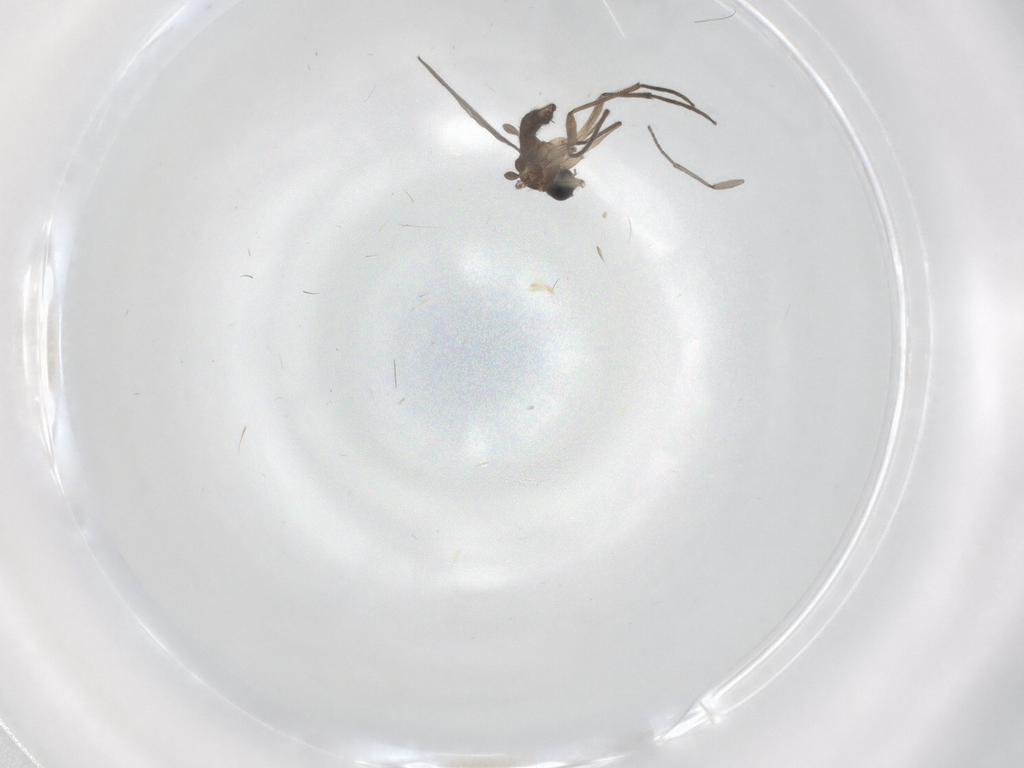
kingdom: Animalia
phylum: Arthropoda
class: Insecta
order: Diptera
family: Sciaridae
